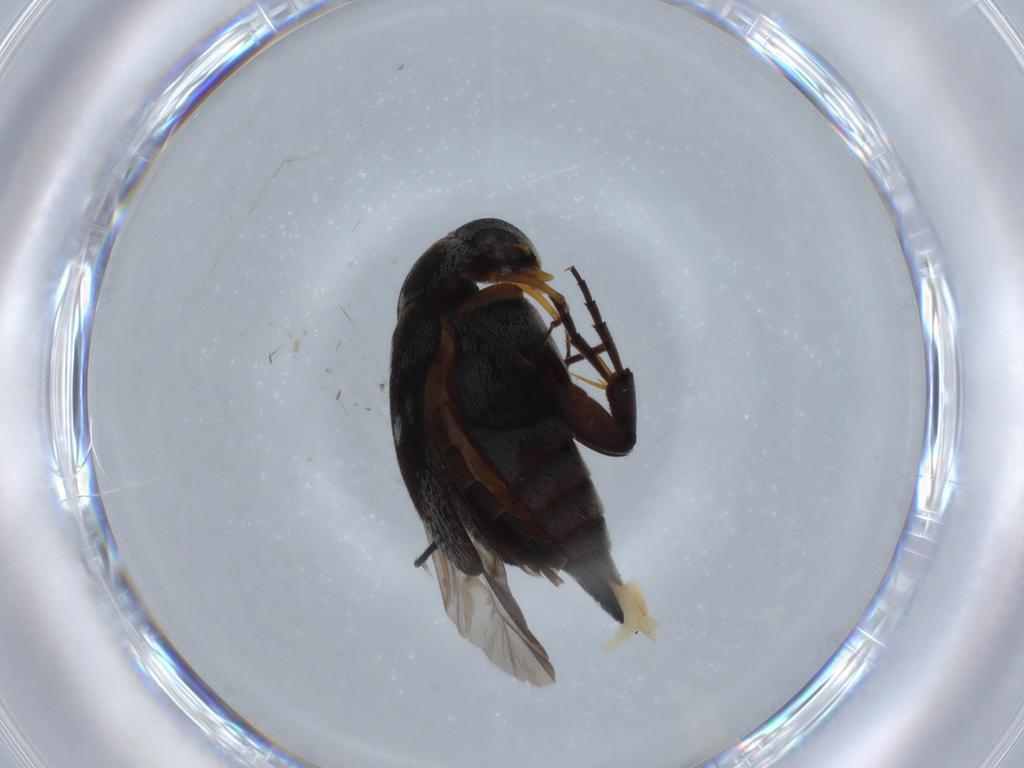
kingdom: Animalia
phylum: Arthropoda
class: Insecta
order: Coleoptera
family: Mordellidae
